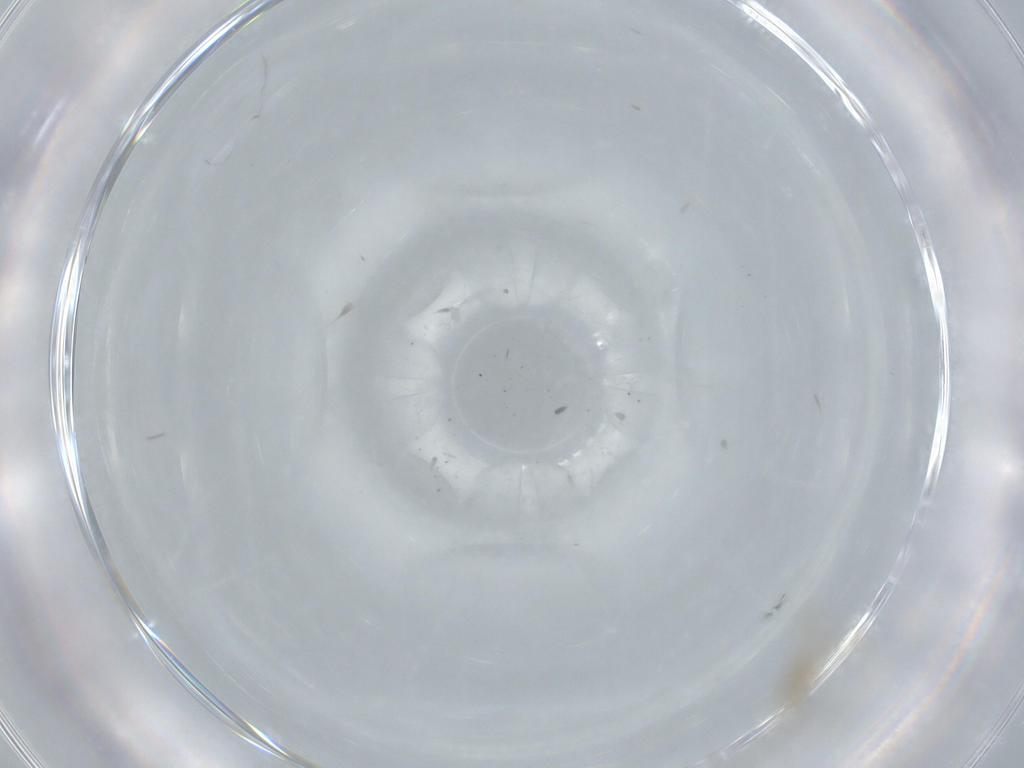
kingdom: Animalia
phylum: Arthropoda
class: Insecta
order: Diptera
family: Cecidomyiidae
